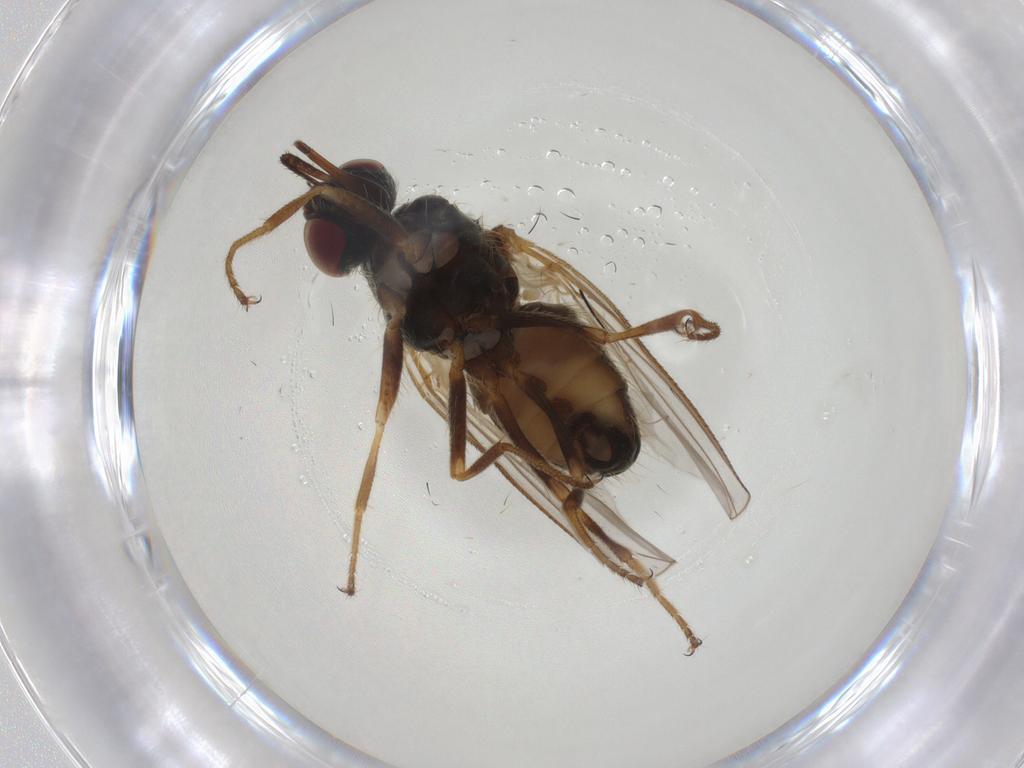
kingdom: Animalia
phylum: Arthropoda
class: Insecta
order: Diptera
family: Ceratopogonidae
